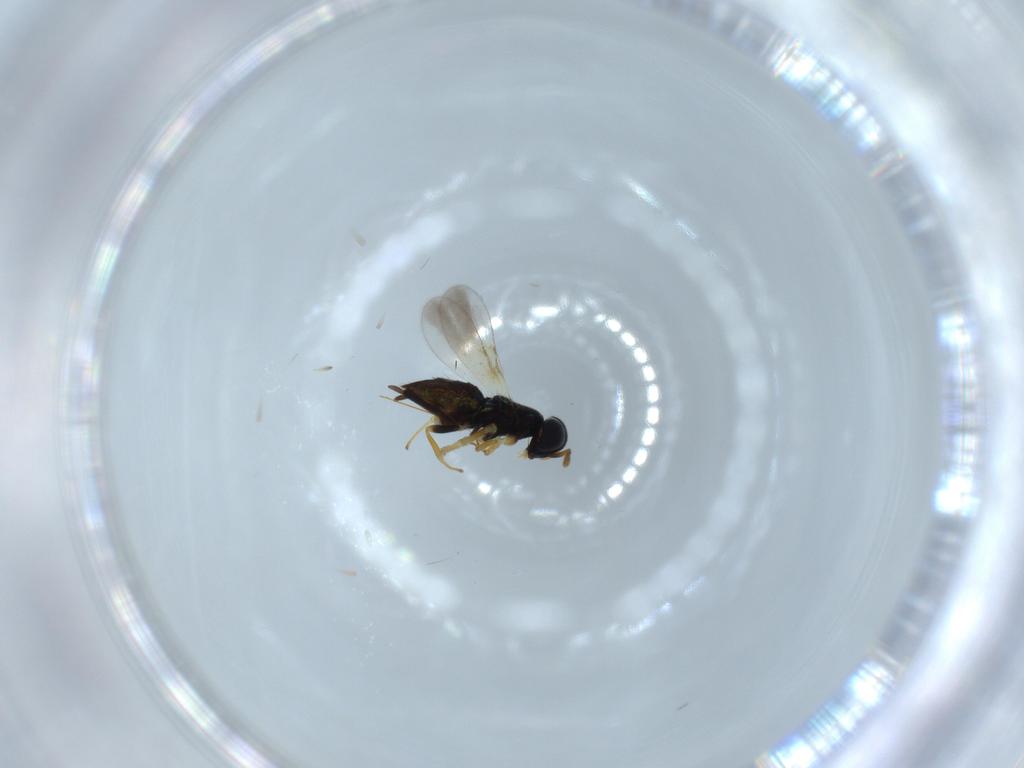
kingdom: Animalia
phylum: Arthropoda
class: Insecta
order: Hymenoptera
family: Encyrtidae
